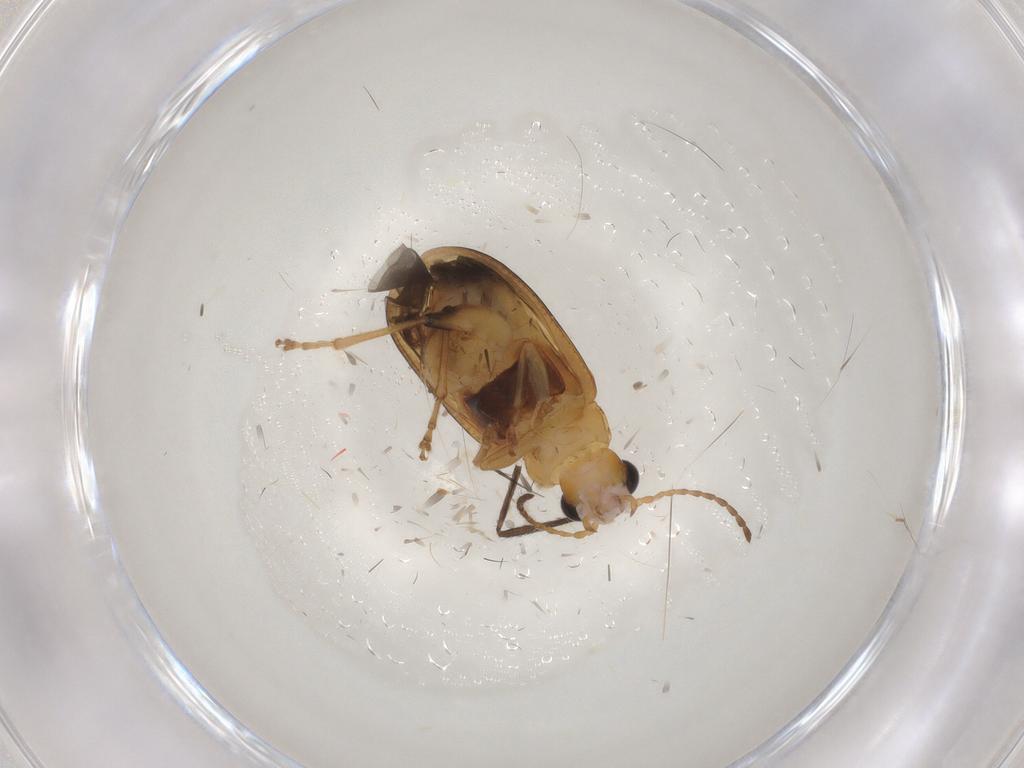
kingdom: Animalia
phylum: Arthropoda
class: Insecta
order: Coleoptera
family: Chrysomelidae
